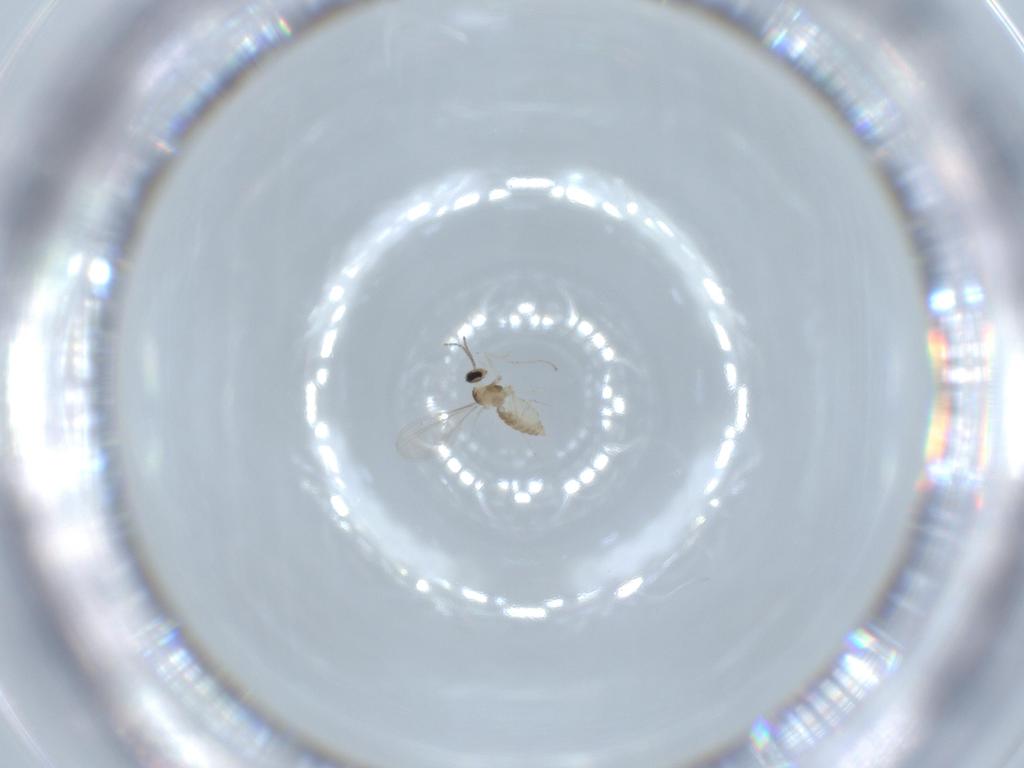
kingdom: Animalia
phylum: Arthropoda
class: Insecta
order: Diptera
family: Cecidomyiidae
